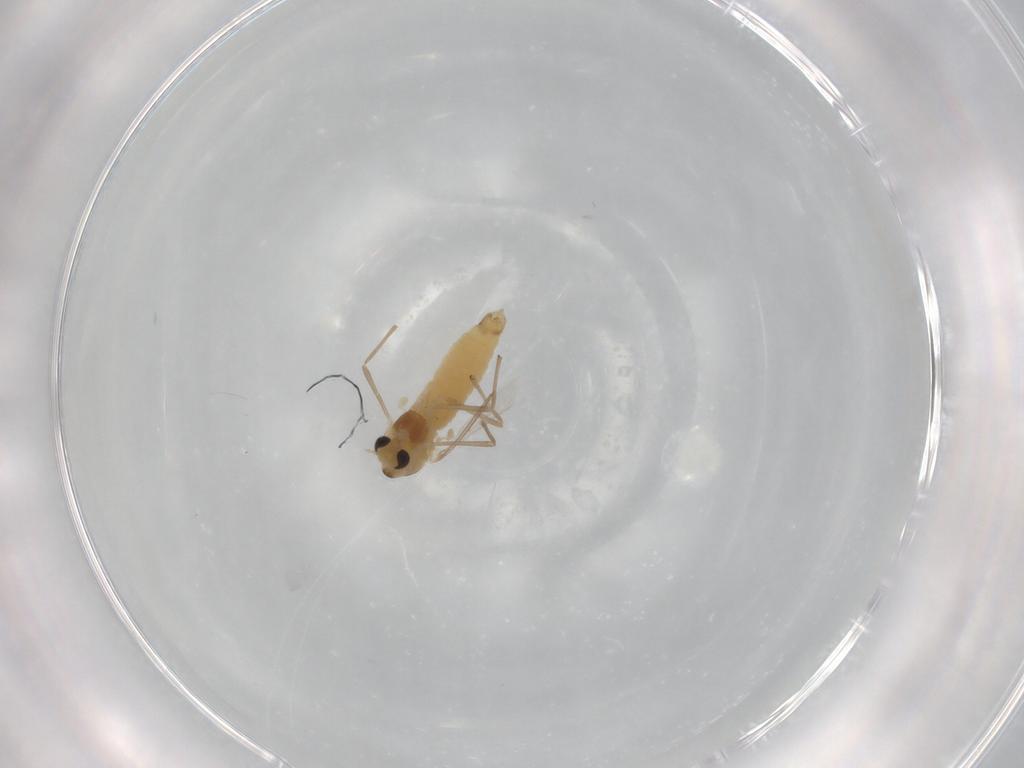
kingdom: Animalia
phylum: Arthropoda
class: Insecta
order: Diptera
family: Chironomidae
